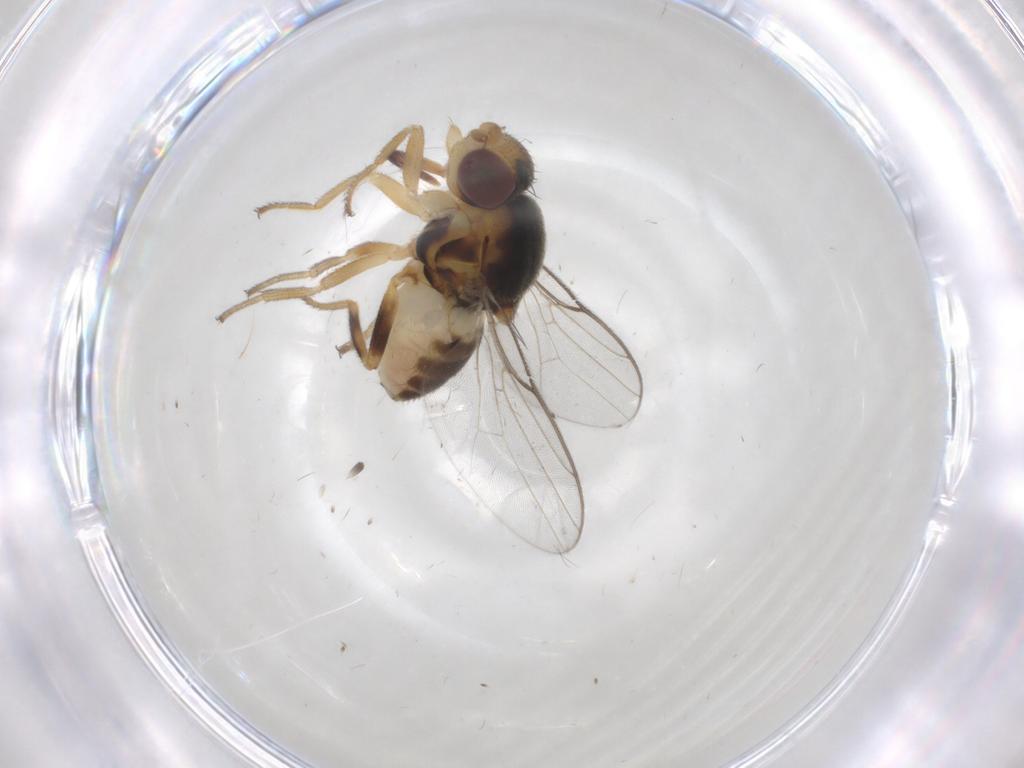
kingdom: Animalia
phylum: Arthropoda
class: Insecta
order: Diptera
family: Chloropidae
